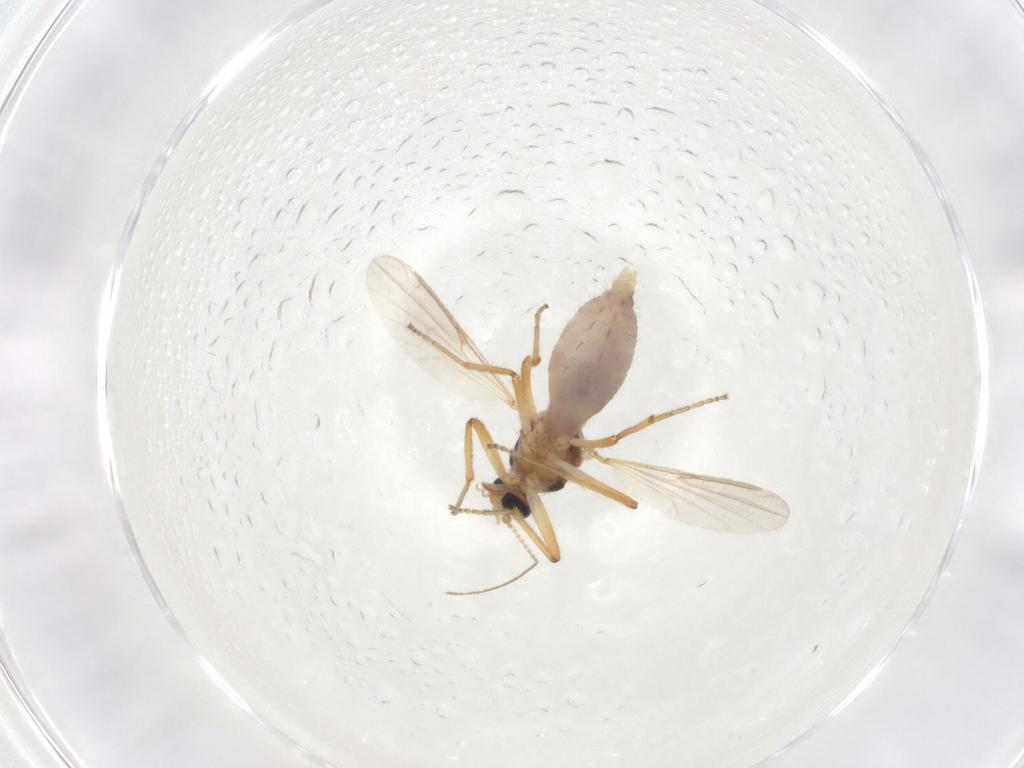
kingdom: Animalia
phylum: Arthropoda
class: Insecta
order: Diptera
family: Ceratopogonidae
